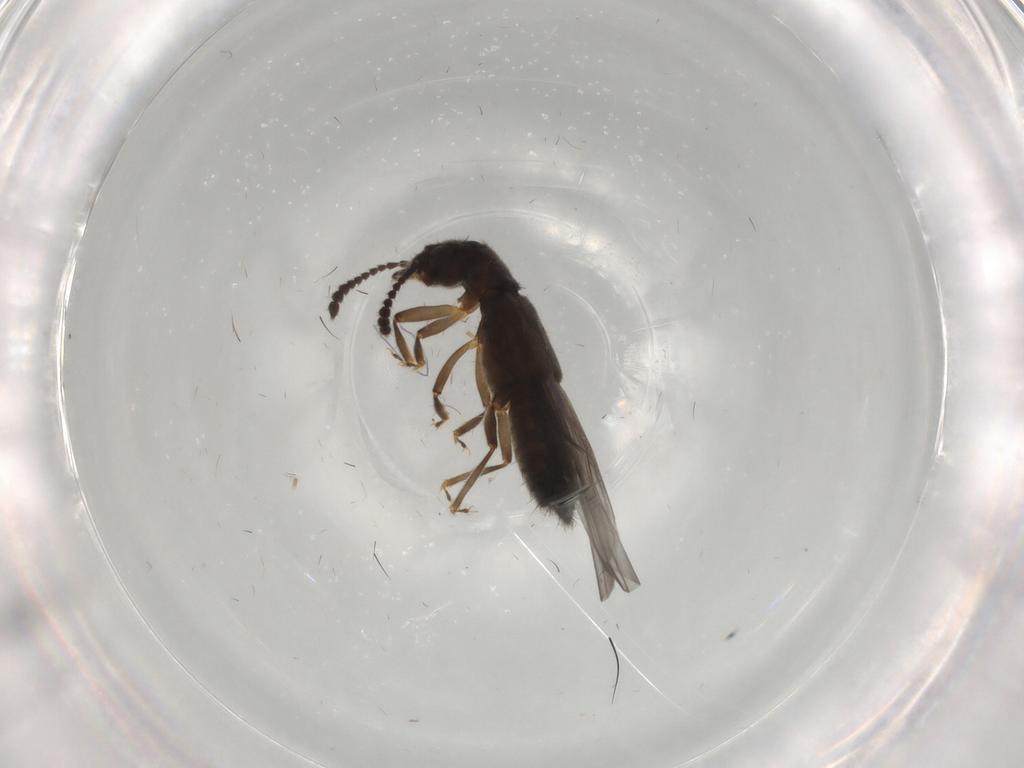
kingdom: Animalia
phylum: Arthropoda
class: Insecta
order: Coleoptera
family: Staphylinidae
